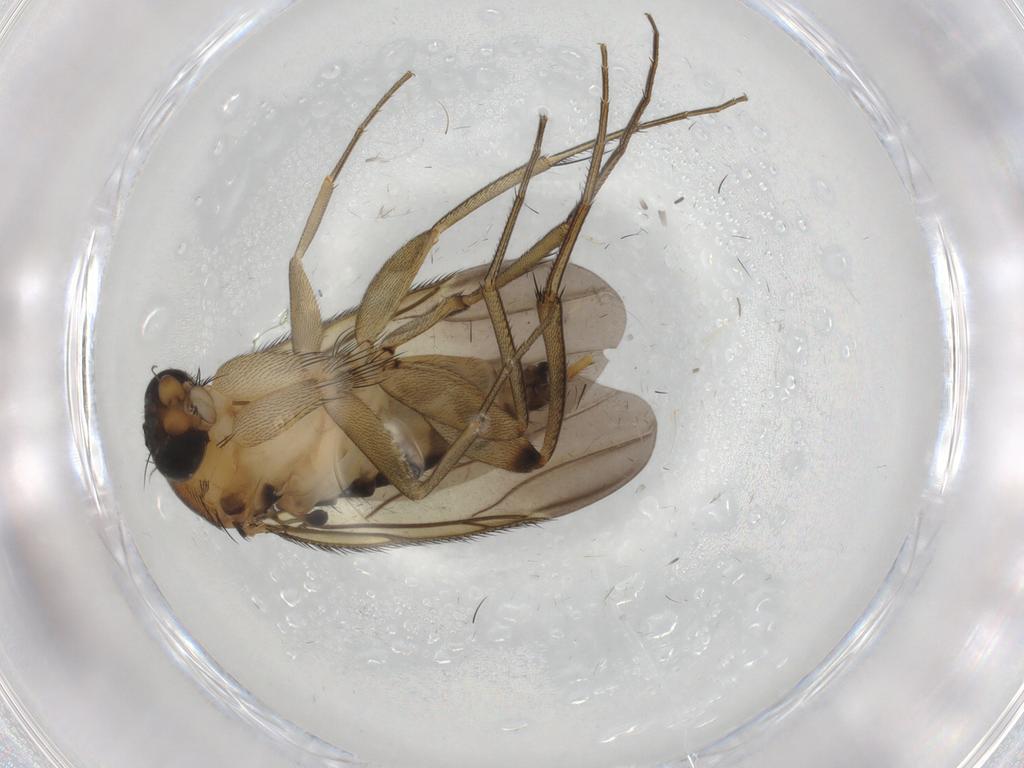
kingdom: Animalia
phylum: Arthropoda
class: Insecta
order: Diptera
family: Phoridae
